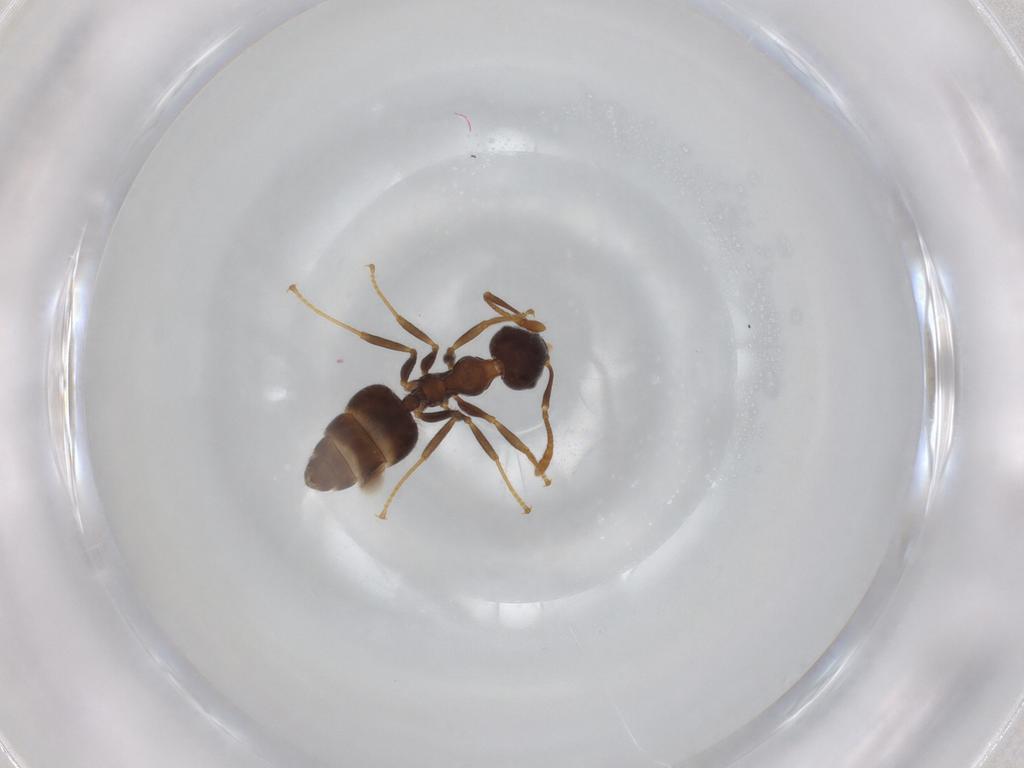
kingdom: Animalia
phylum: Arthropoda
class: Insecta
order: Hymenoptera
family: Formicidae
